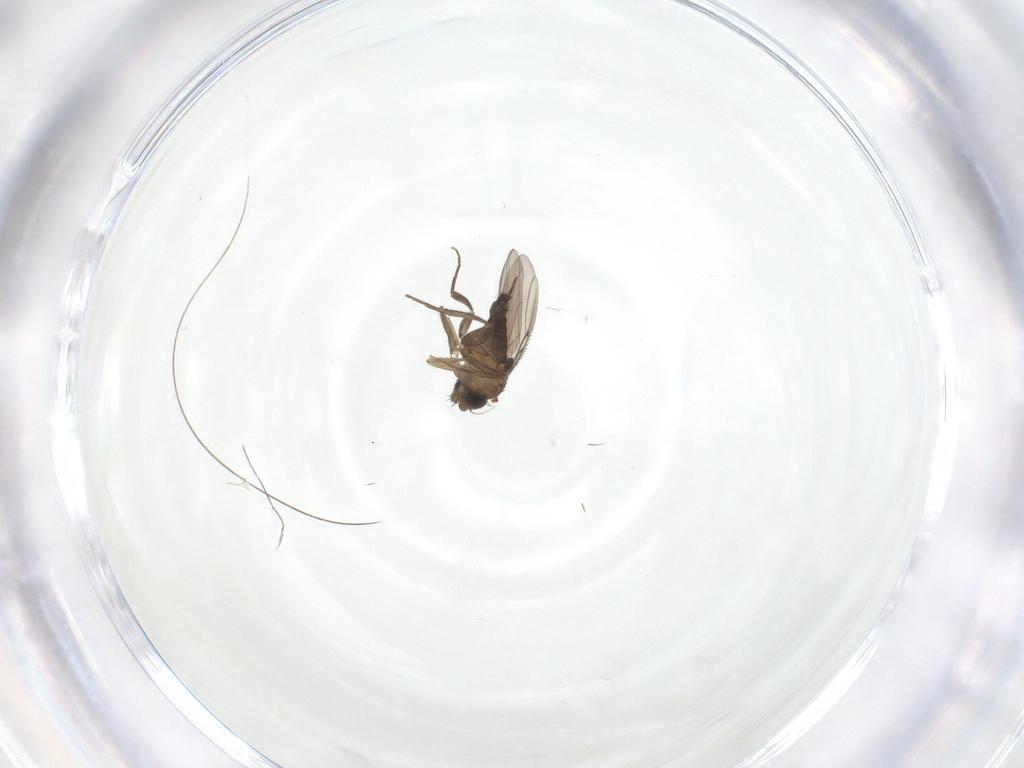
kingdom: Animalia
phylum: Arthropoda
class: Insecta
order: Diptera
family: Phoridae
